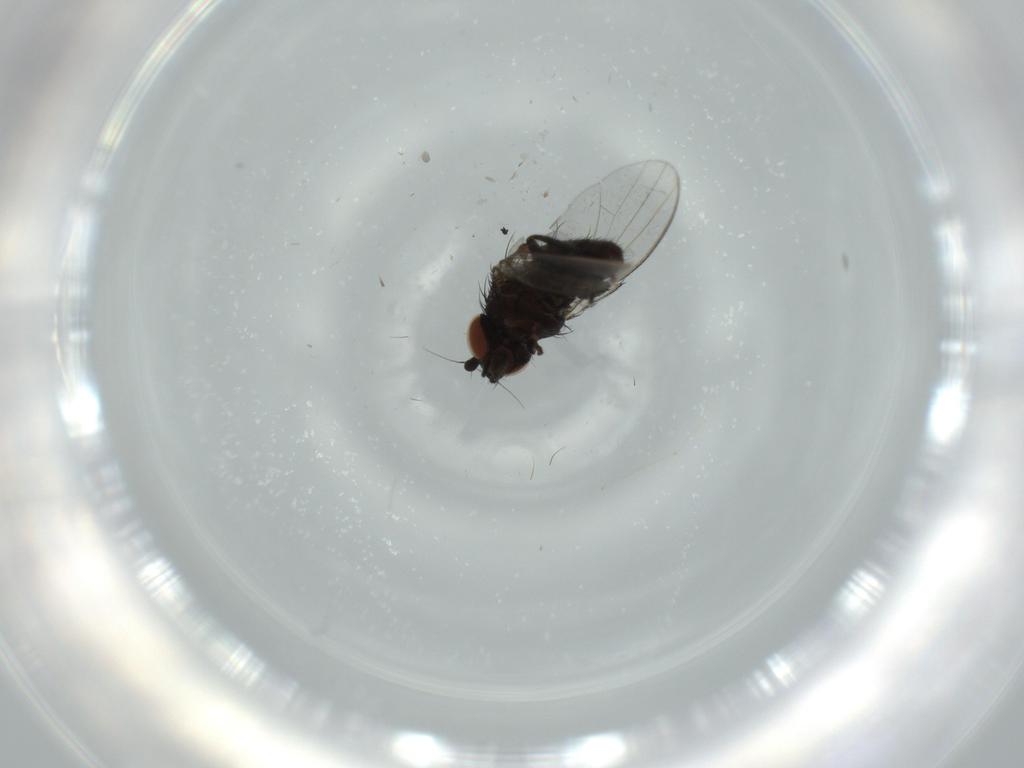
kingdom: Animalia
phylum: Arthropoda
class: Insecta
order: Diptera
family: Milichiidae
